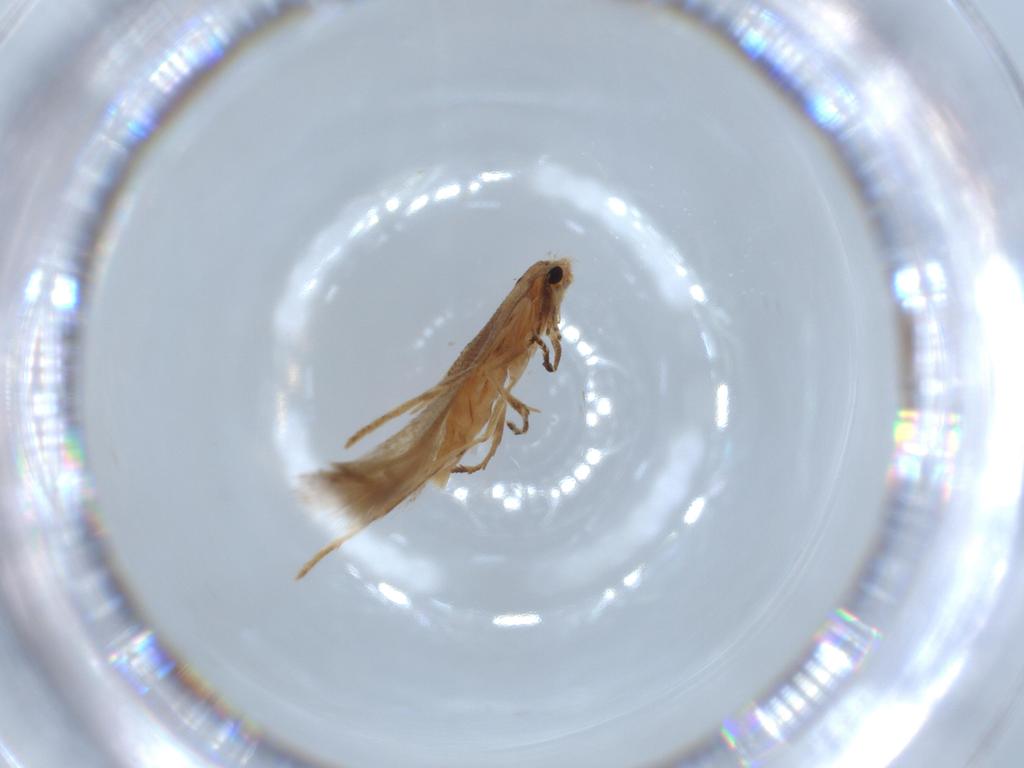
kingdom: Animalia
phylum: Arthropoda
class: Insecta
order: Lepidoptera
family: Gracillariidae
